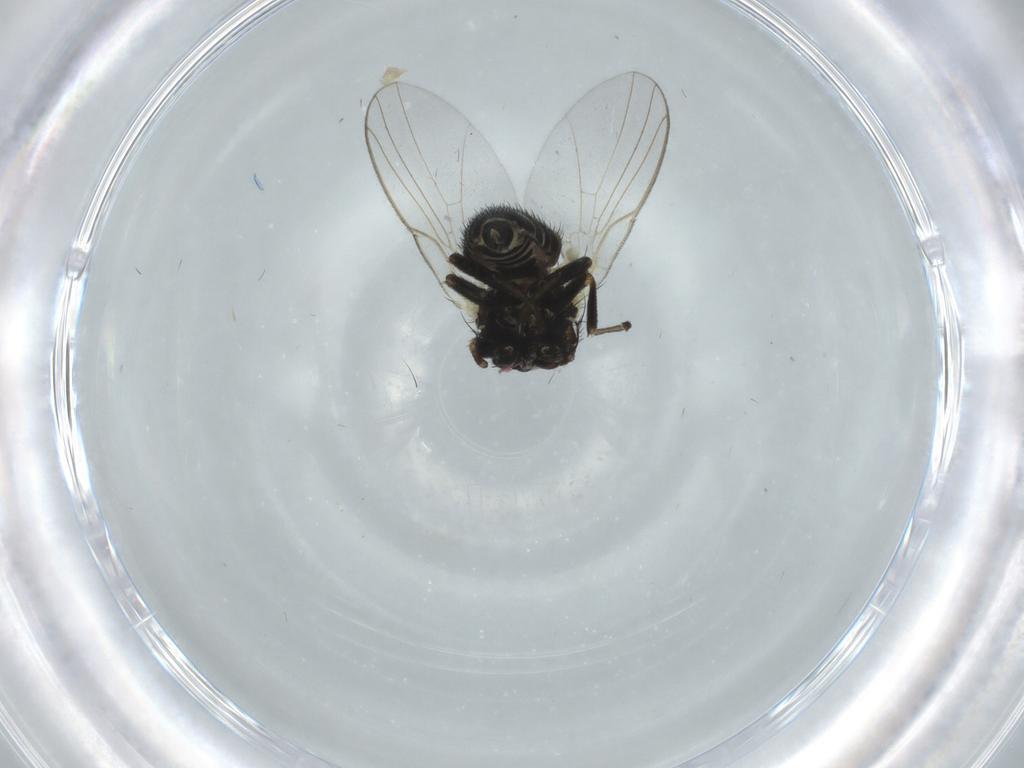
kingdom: Animalia
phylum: Arthropoda
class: Insecta
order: Diptera
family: Agromyzidae
